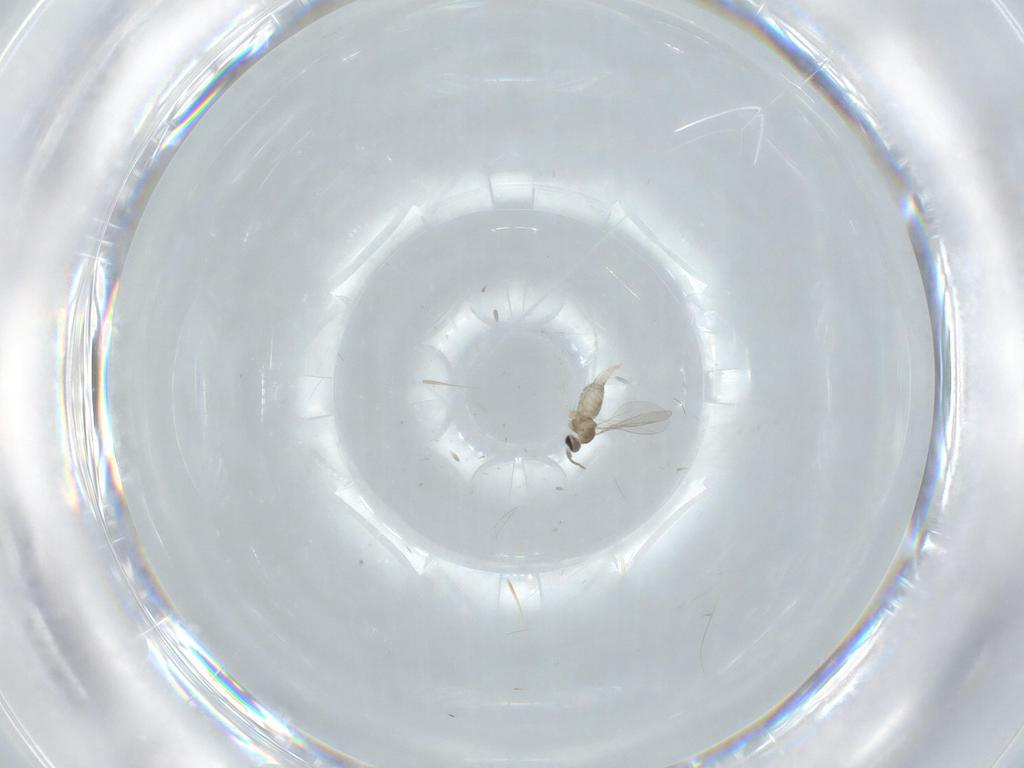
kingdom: Animalia
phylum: Arthropoda
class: Insecta
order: Diptera
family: Cecidomyiidae
